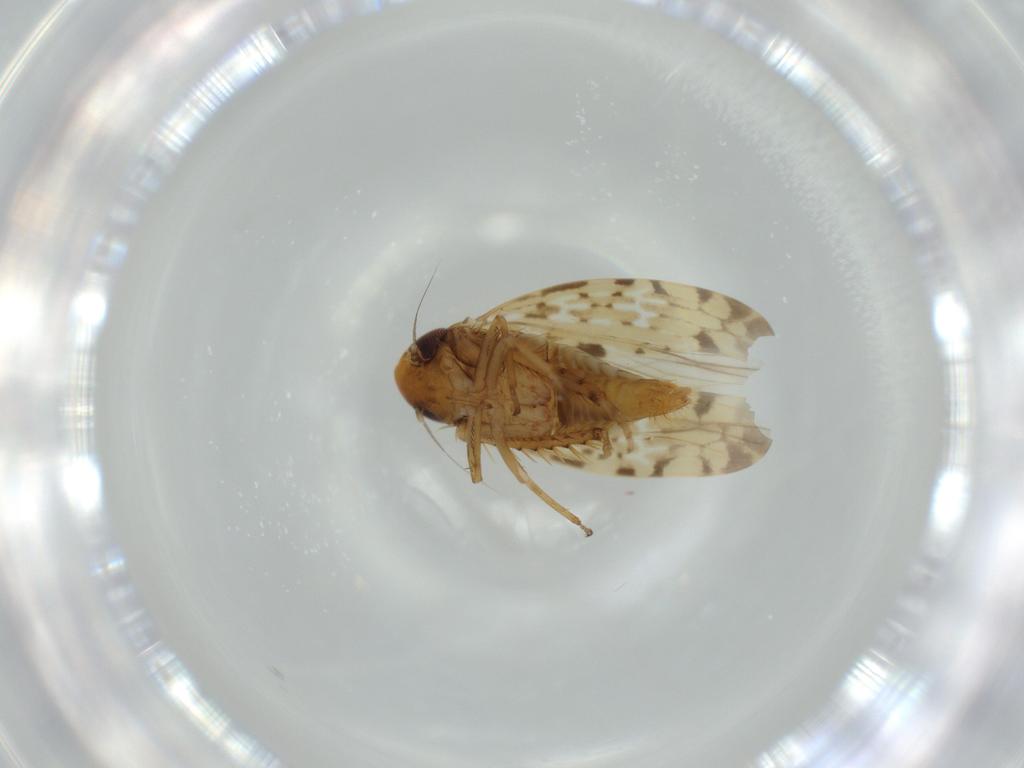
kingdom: Animalia
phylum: Arthropoda
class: Insecta
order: Hemiptera
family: Cicadellidae
